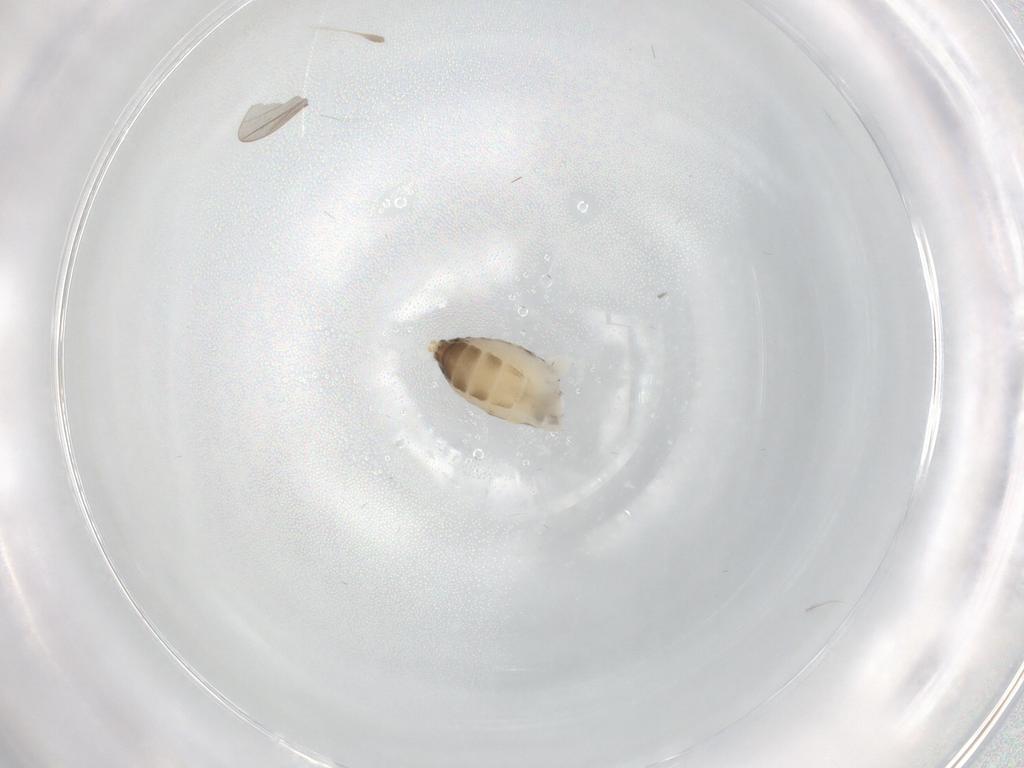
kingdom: Animalia
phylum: Arthropoda
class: Insecta
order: Diptera
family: Ceratopogonidae
